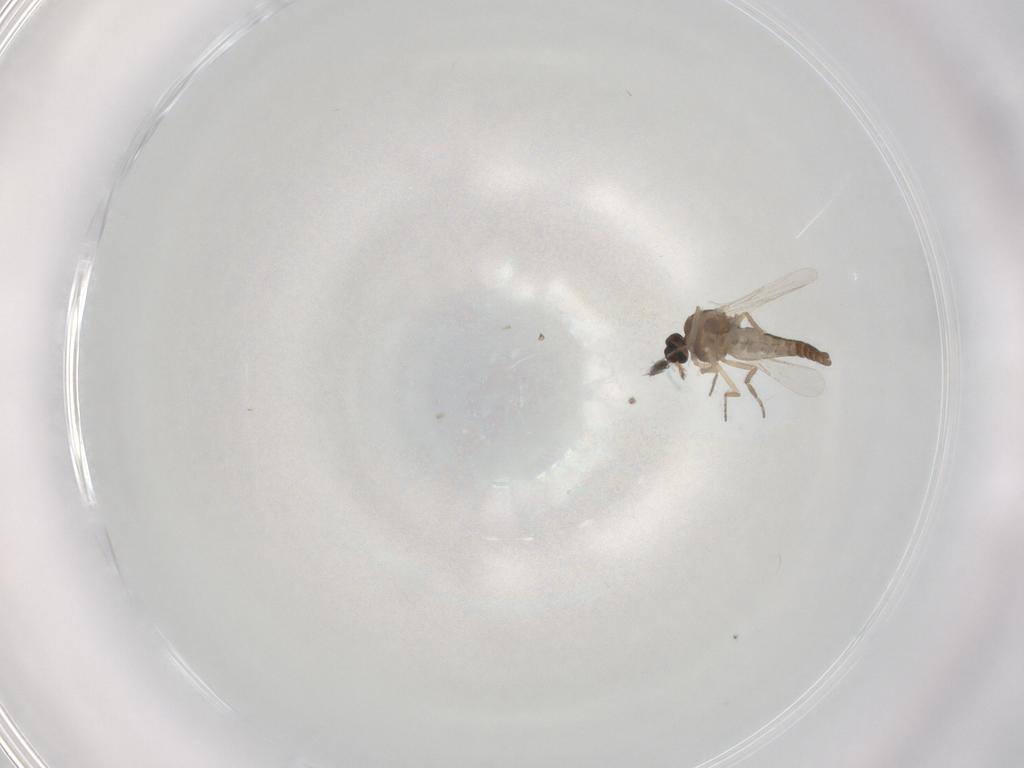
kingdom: Animalia
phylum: Arthropoda
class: Insecta
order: Diptera
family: Ceratopogonidae
